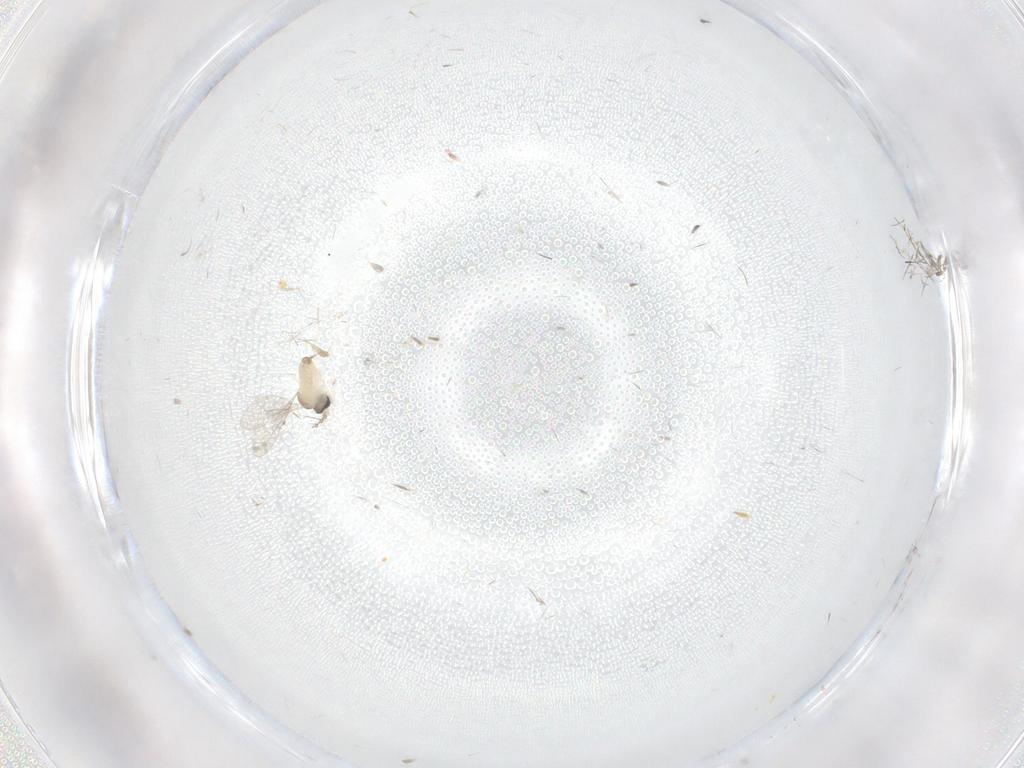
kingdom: Animalia
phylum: Arthropoda
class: Insecta
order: Diptera
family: Cecidomyiidae
